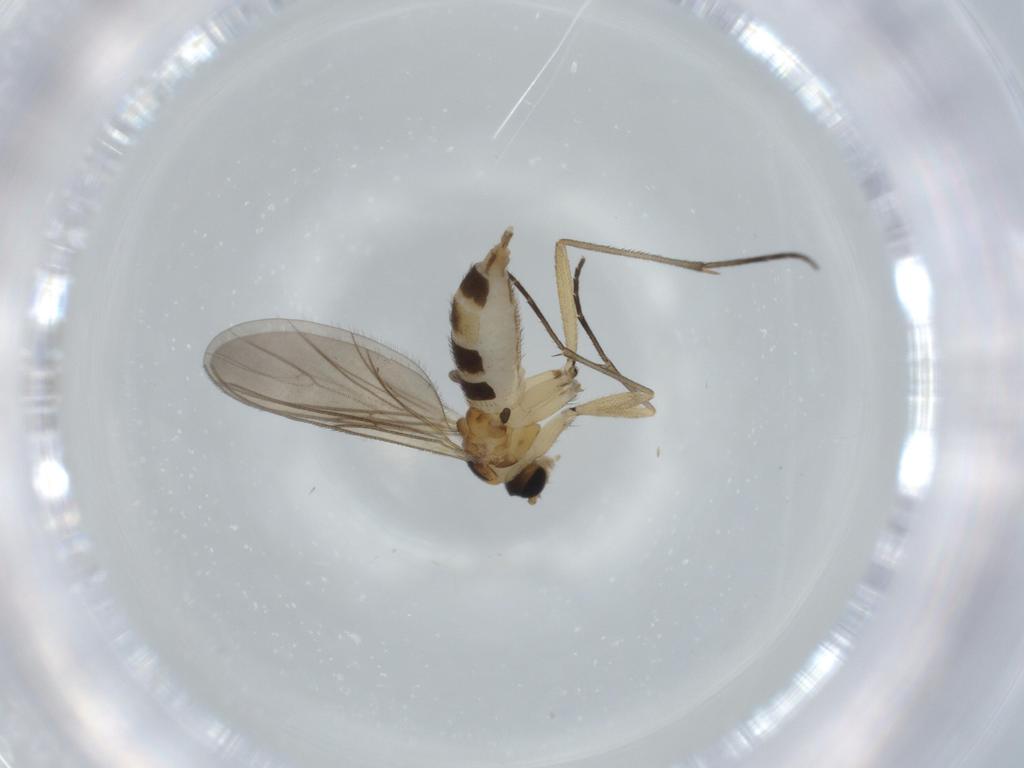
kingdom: Animalia
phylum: Arthropoda
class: Insecta
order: Diptera
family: Sciaridae
